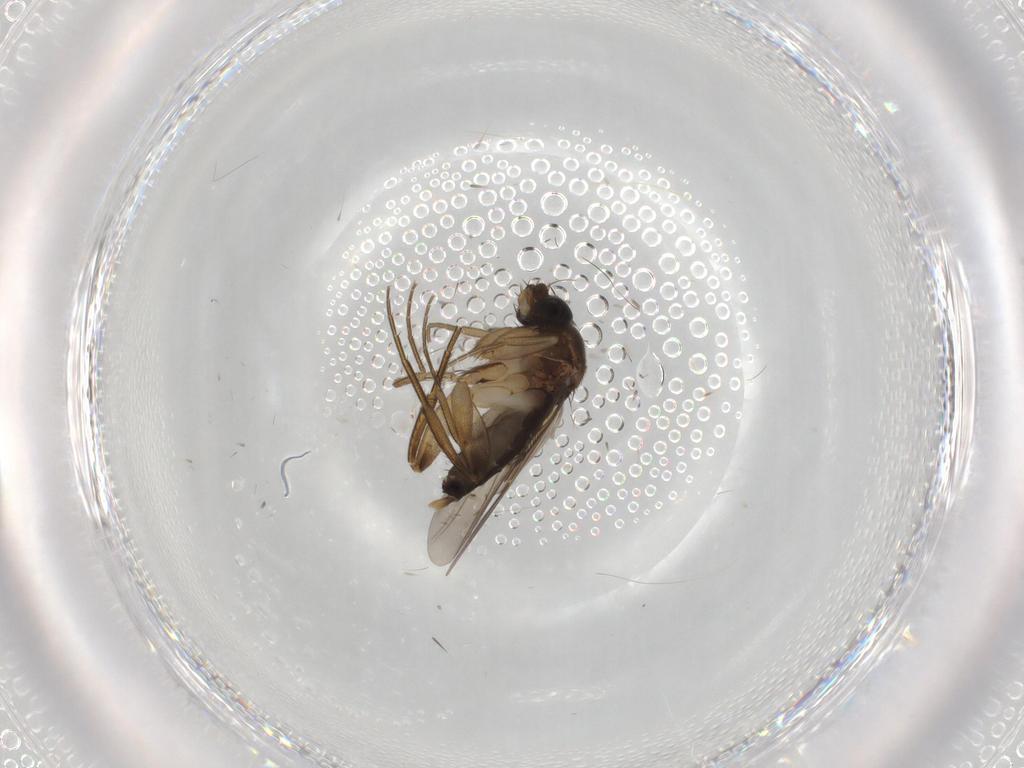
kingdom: Animalia
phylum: Arthropoda
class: Insecta
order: Diptera
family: Phoridae
